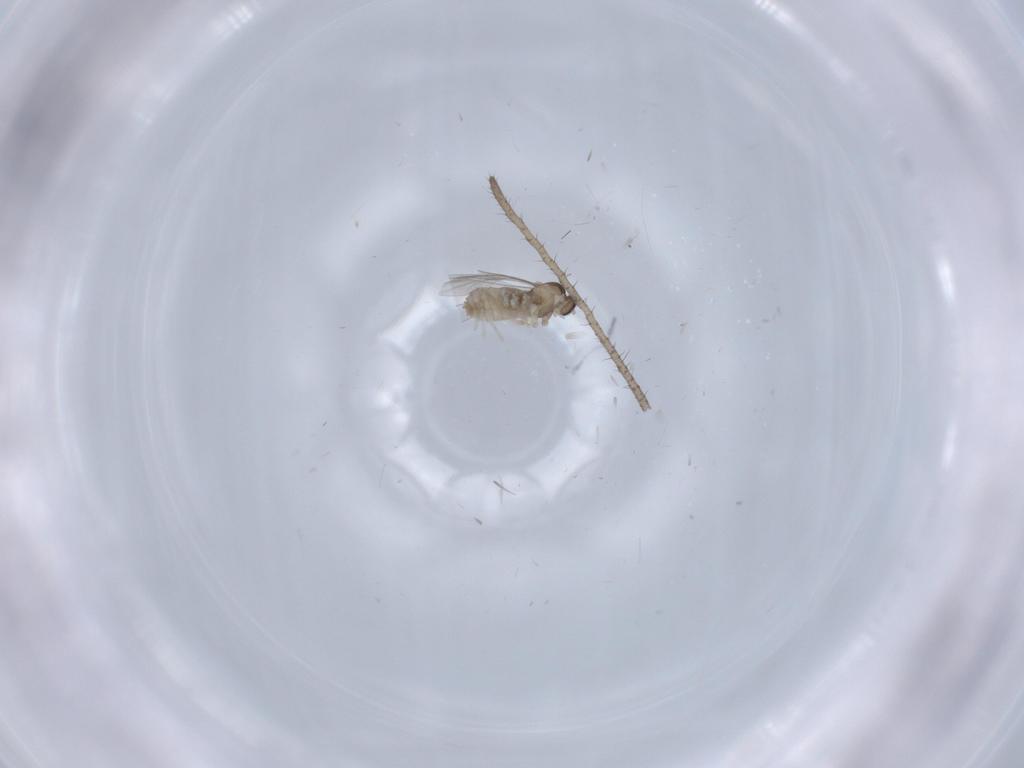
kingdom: Animalia
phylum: Arthropoda
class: Insecta
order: Diptera
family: Cecidomyiidae
